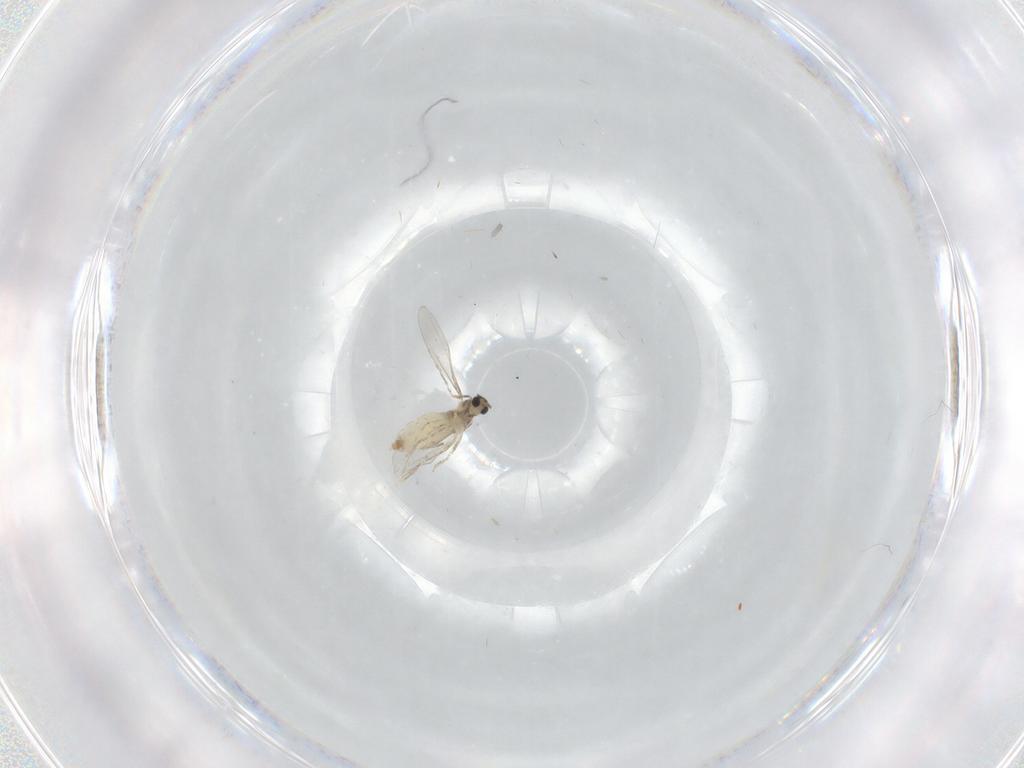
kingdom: Animalia
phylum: Arthropoda
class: Insecta
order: Diptera
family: Cecidomyiidae
